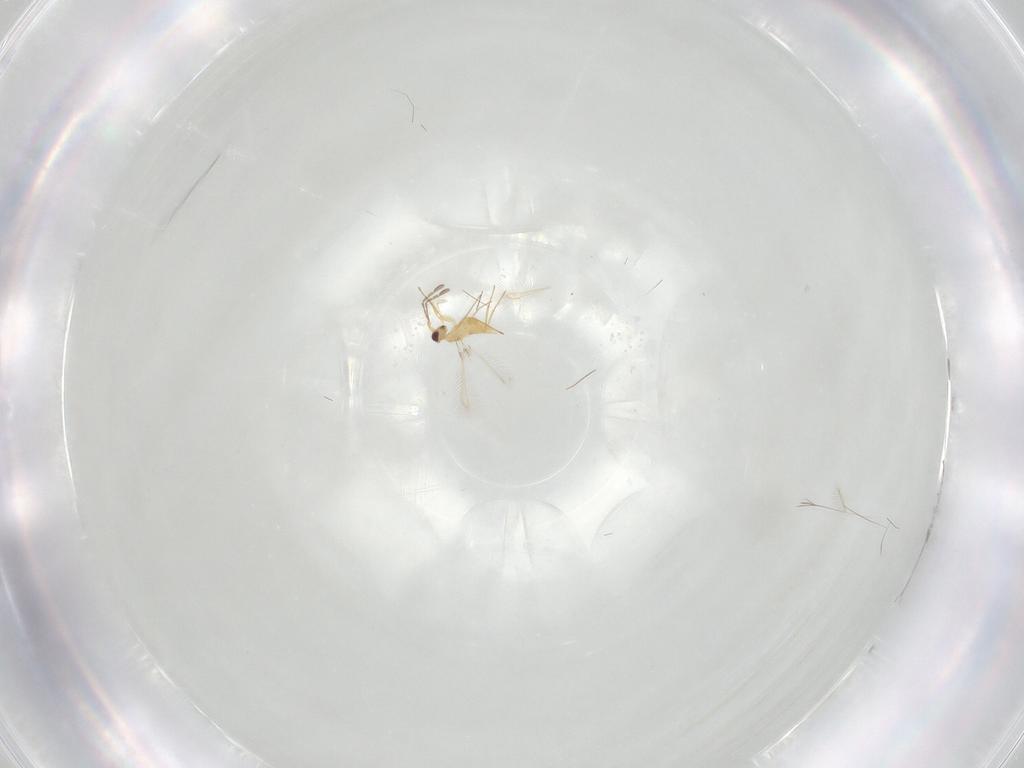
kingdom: Animalia
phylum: Arthropoda
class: Insecta
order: Hymenoptera
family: Mymaridae
